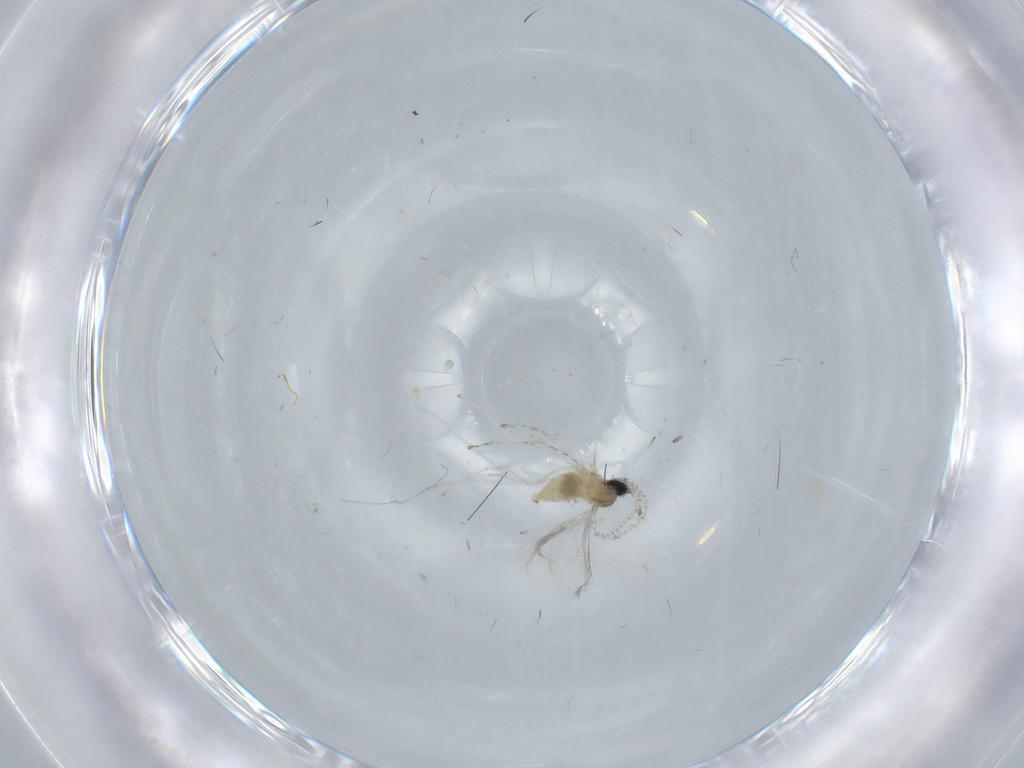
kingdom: Animalia
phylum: Arthropoda
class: Insecta
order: Diptera
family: Cecidomyiidae
